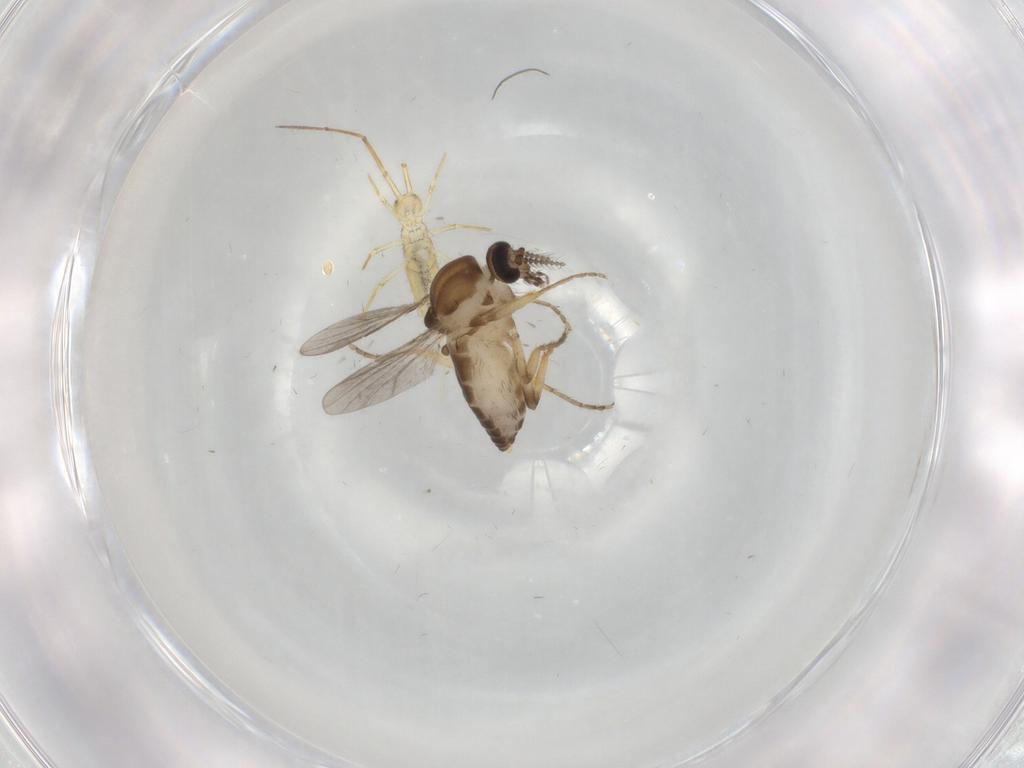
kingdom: Animalia
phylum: Arthropoda
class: Insecta
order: Diptera
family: Ceratopogonidae
